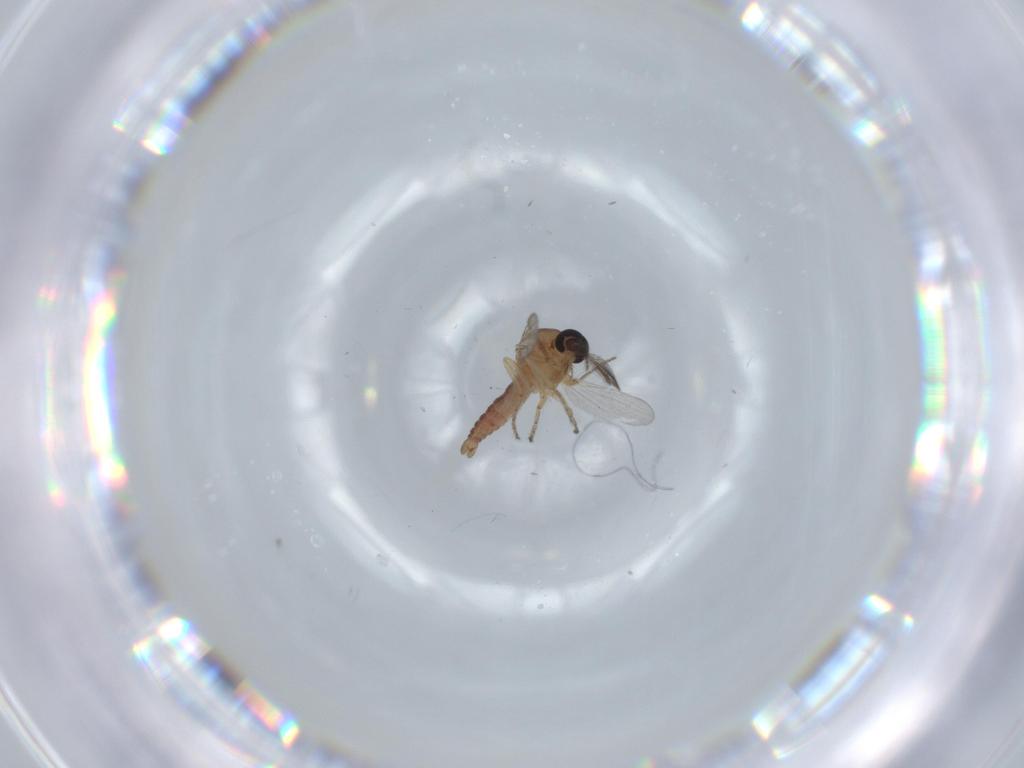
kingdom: Animalia
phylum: Arthropoda
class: Insecta
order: Diptera
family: Ceratopogonidae
